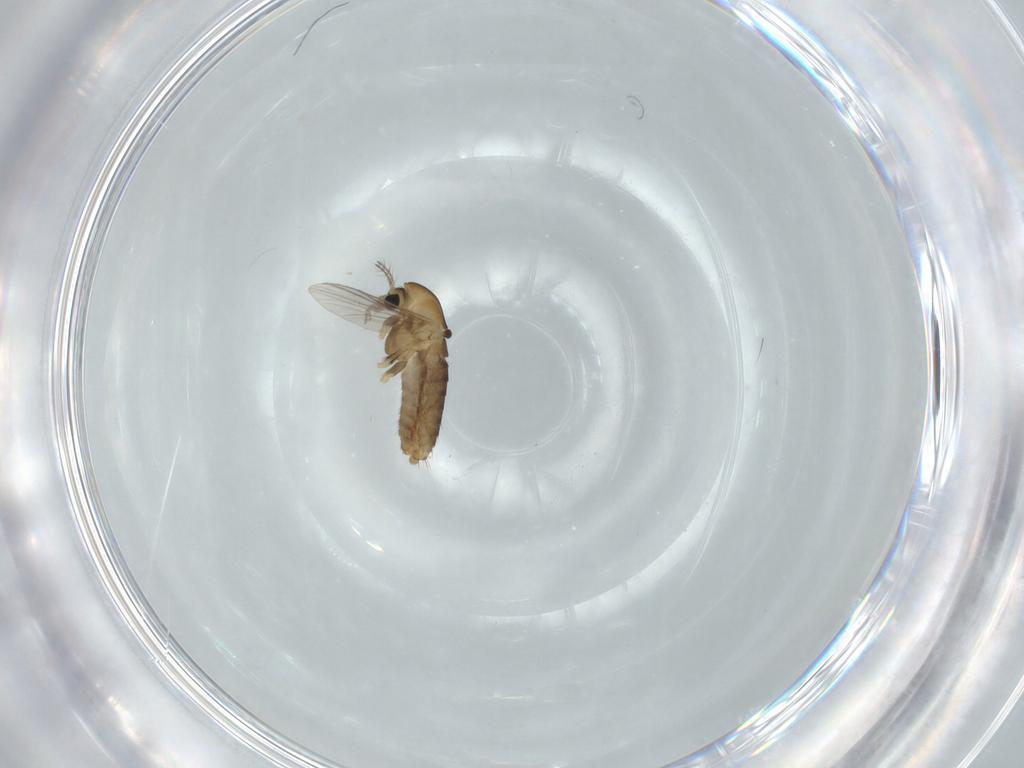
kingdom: Animalia
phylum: Arthropoda
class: Insecta
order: Diptera
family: Chironomidae
